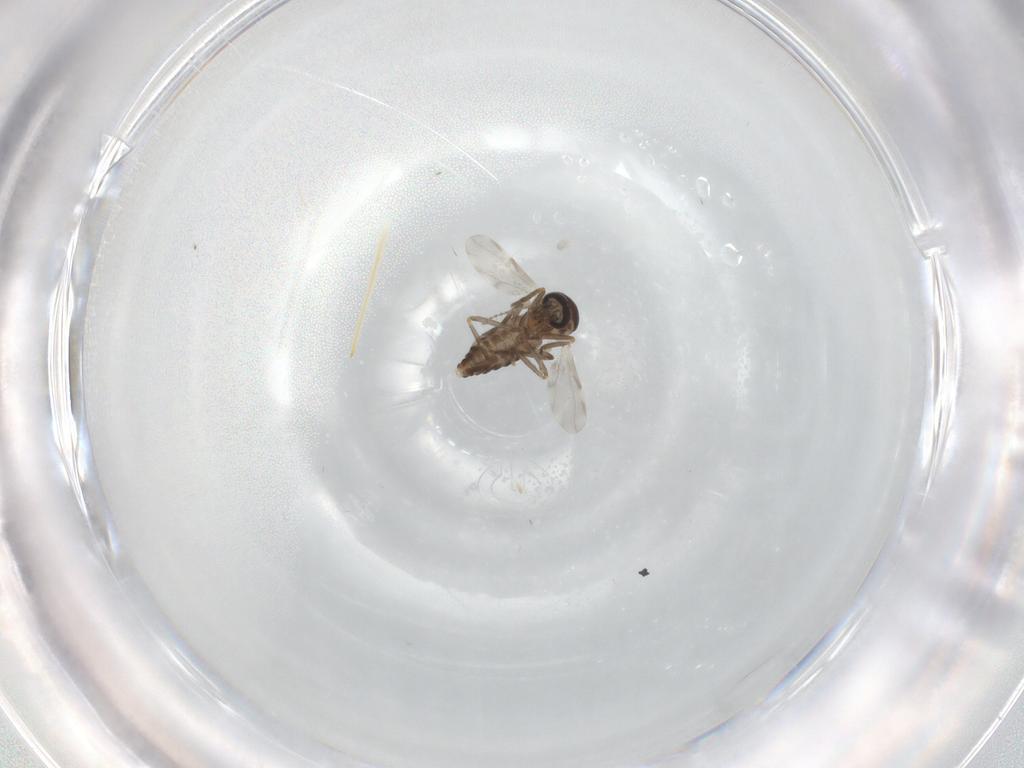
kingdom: Animalia
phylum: Arthropoda
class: Insecta
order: Diptera
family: Ceratopogonidae
